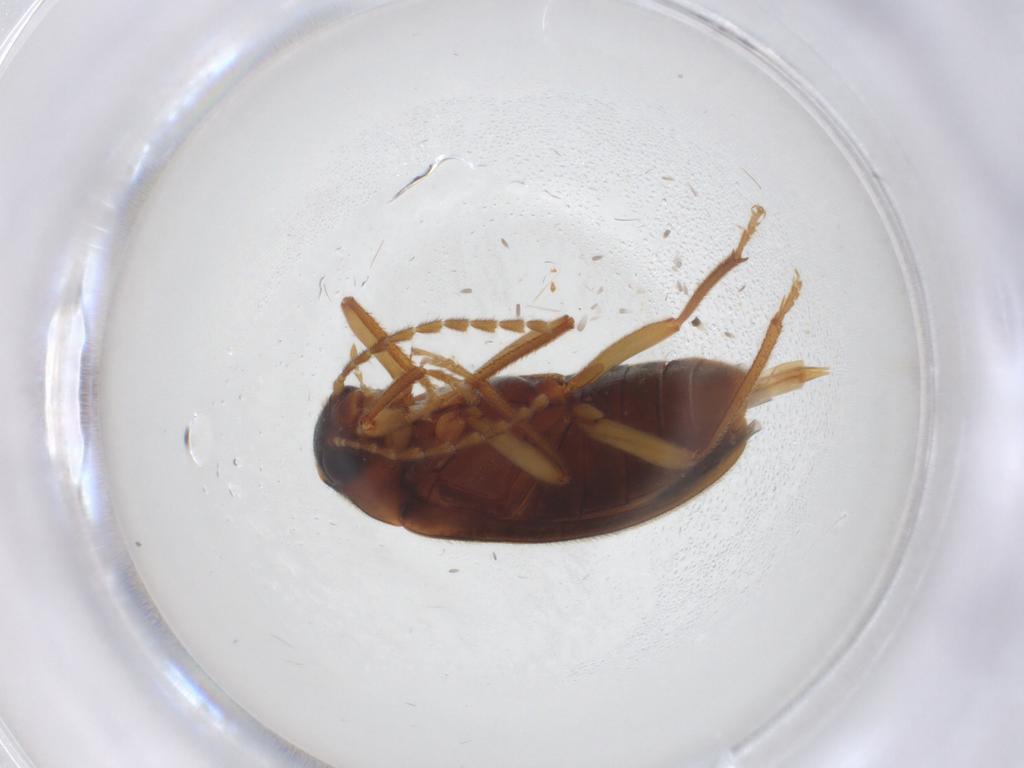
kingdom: Animalia
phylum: Arthropoda
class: Insecta
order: Coleoptera
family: Ptilodactylidae
